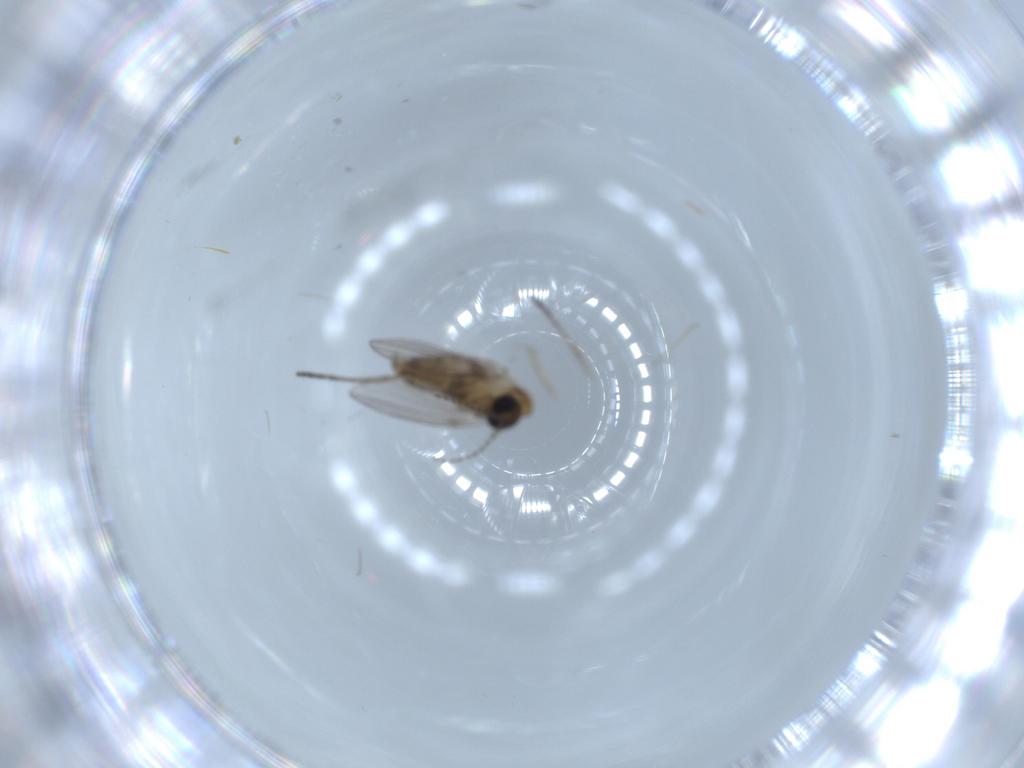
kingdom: Animalia
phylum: Arthropoda
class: Insecta
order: Diptera
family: Psychodidae
